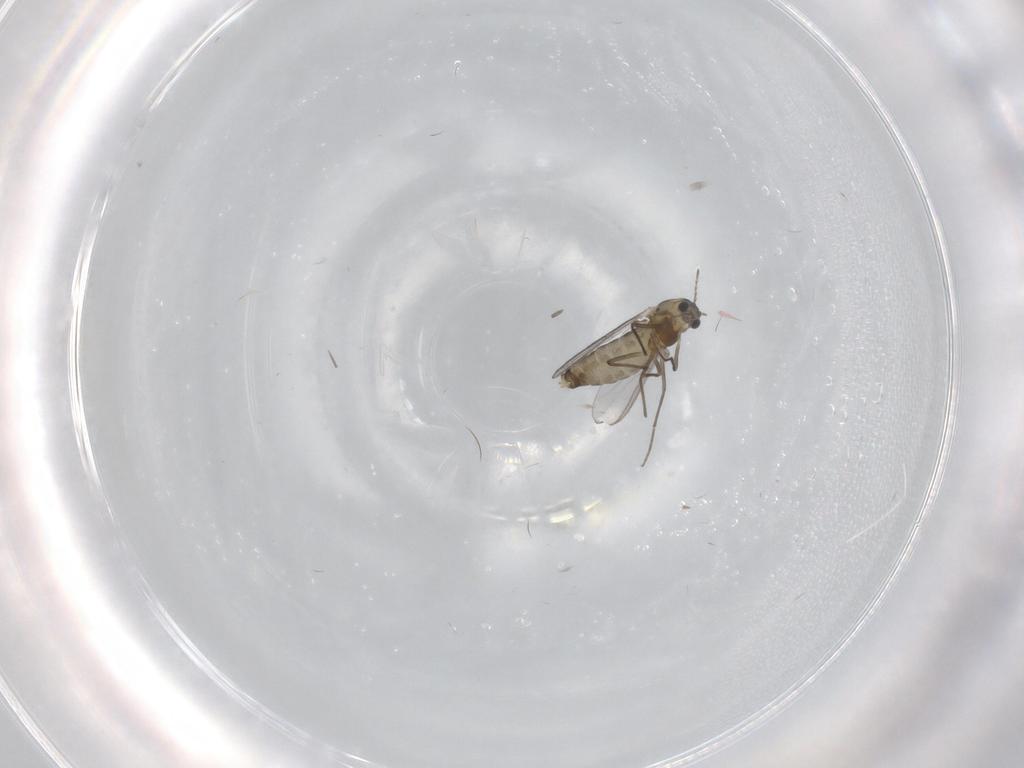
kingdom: Animalia
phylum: Arthropoda
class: Insecta
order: Diptera
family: Chironomidae
